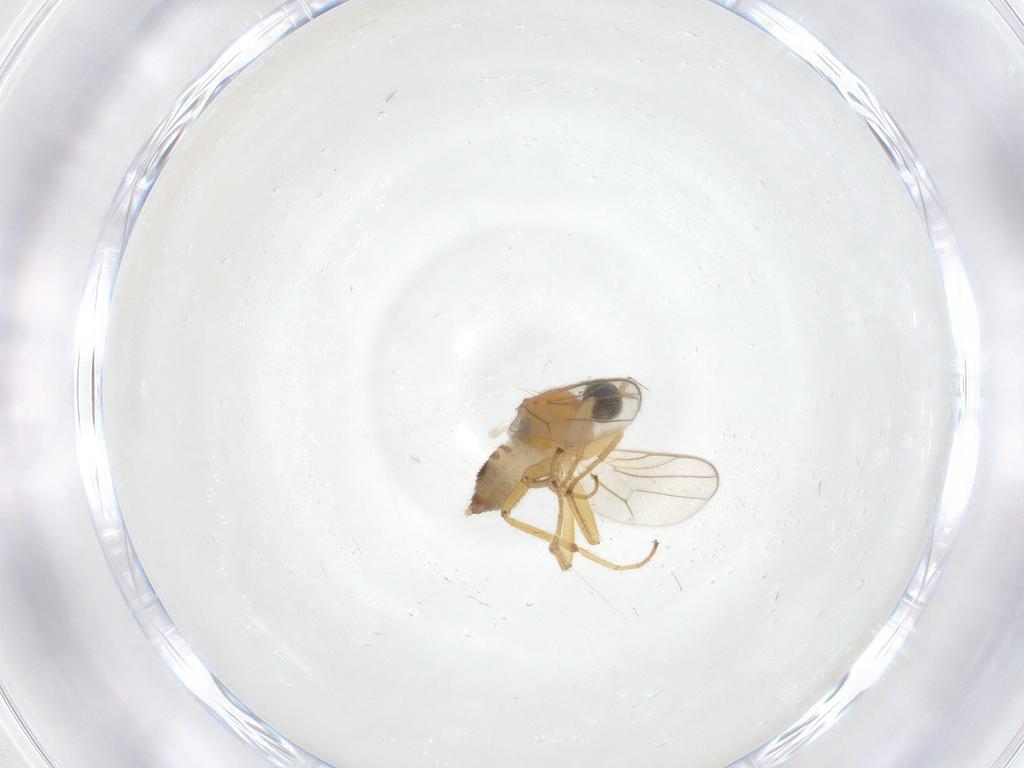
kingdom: Animalia
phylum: Arthropoda
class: Insecta
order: Diptera
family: Hybotidae
